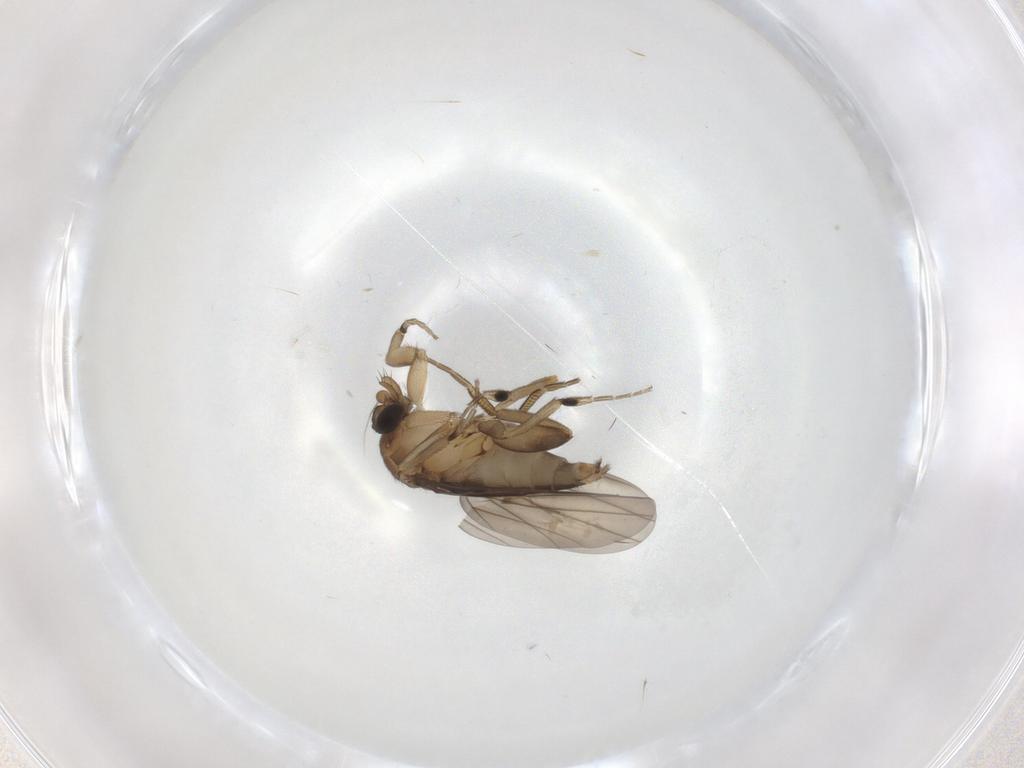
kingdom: Animalia
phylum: Arthropoda
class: Insecta
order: Diptera
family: Phoridae
